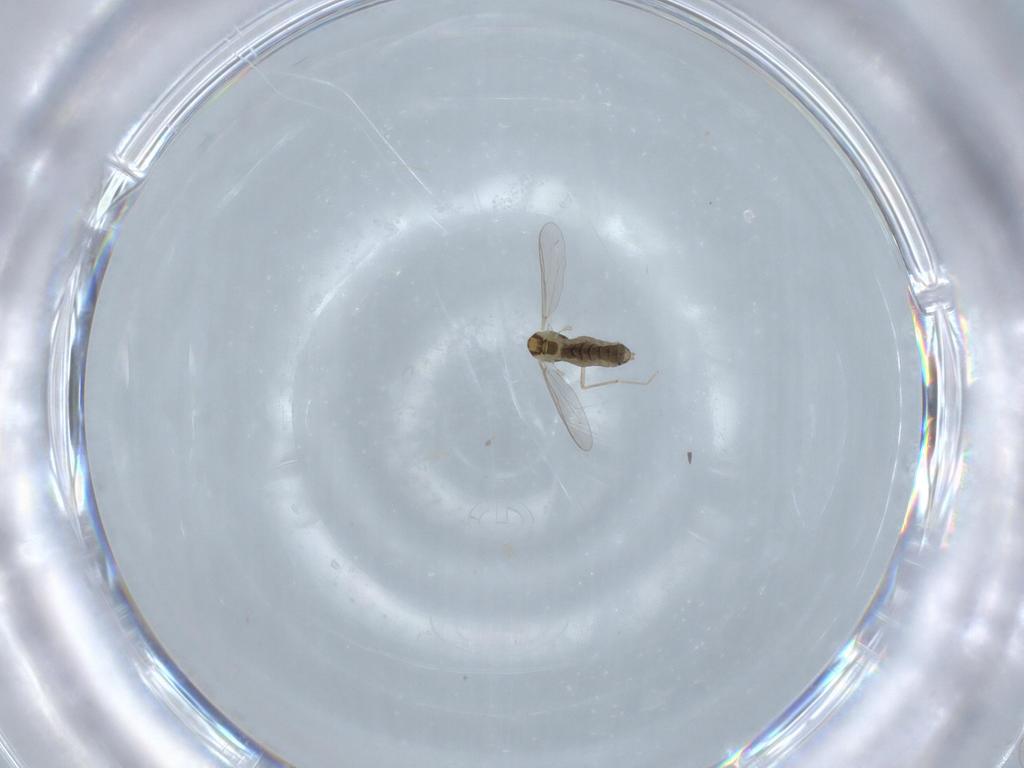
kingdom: Animalia
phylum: Arthropoda
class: Insecta
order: Diptera
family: Chironomidae
